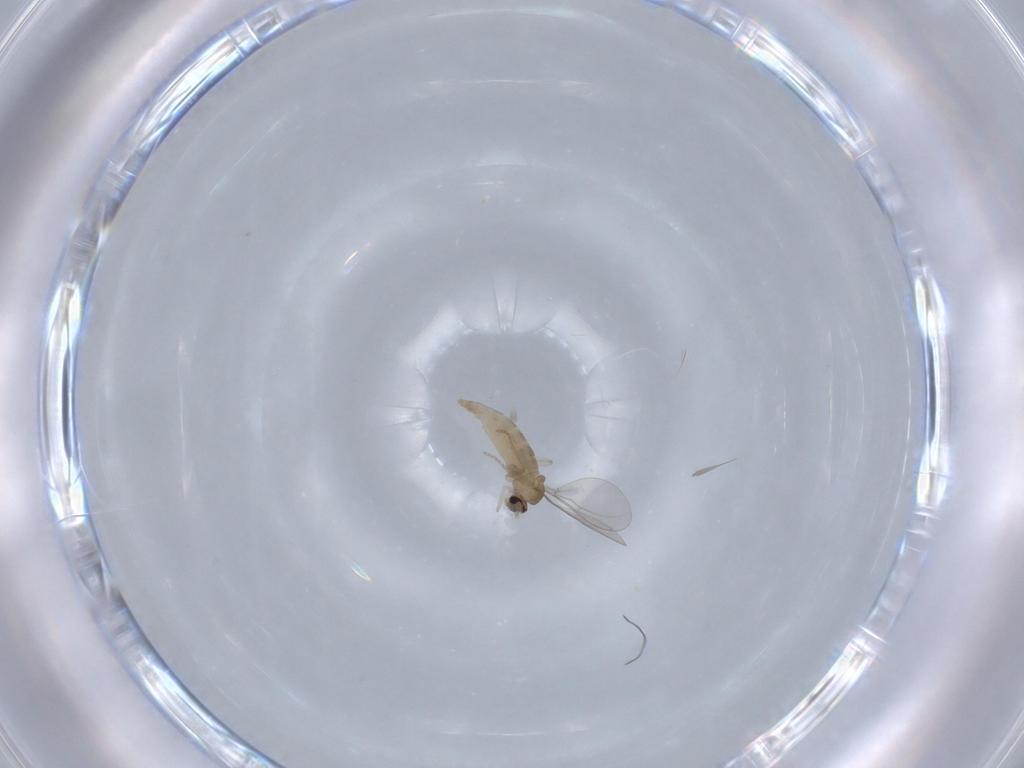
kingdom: Animalia
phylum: Arthropoda
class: Insecta
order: Diptera
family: Cecidomyiidae
